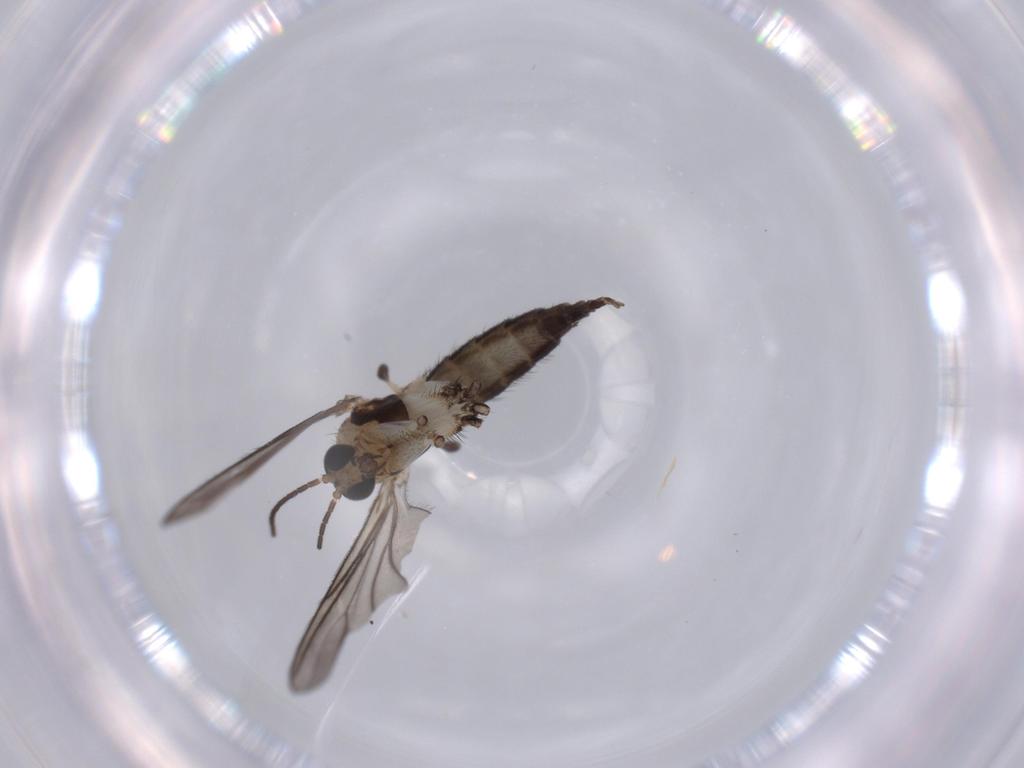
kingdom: Animalia
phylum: Arthropoda
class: Insecta
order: Diptera
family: Sciaridae
